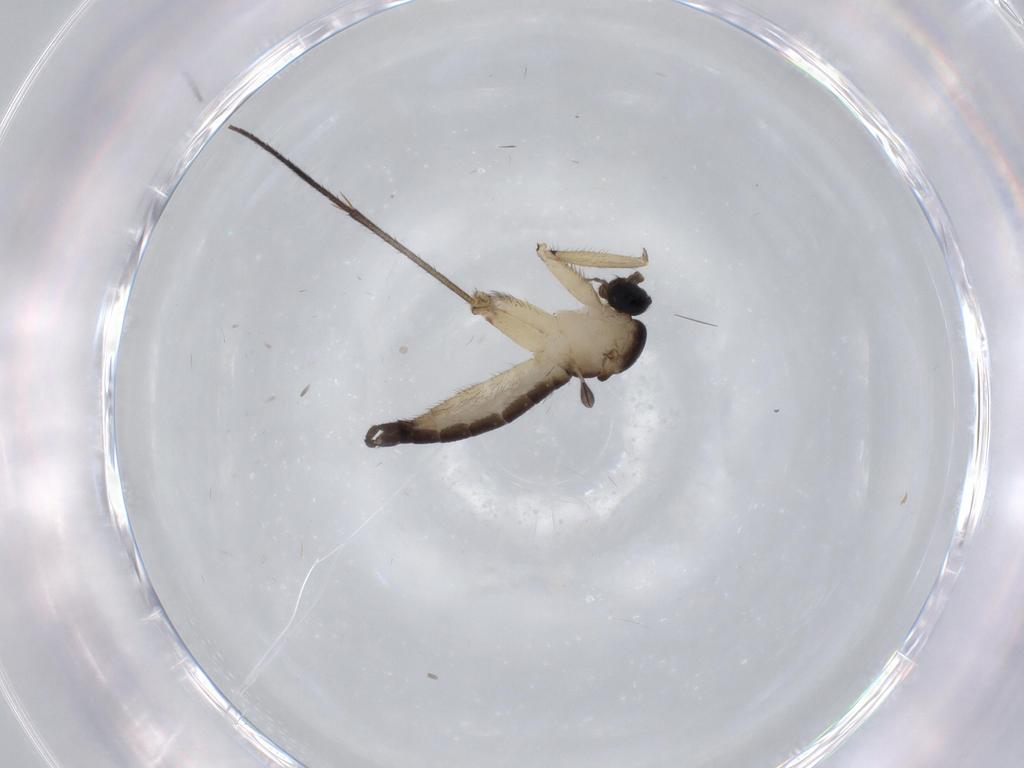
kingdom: Animalia
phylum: Arthropoda
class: Insecta
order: Diptera
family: Sciaridae
